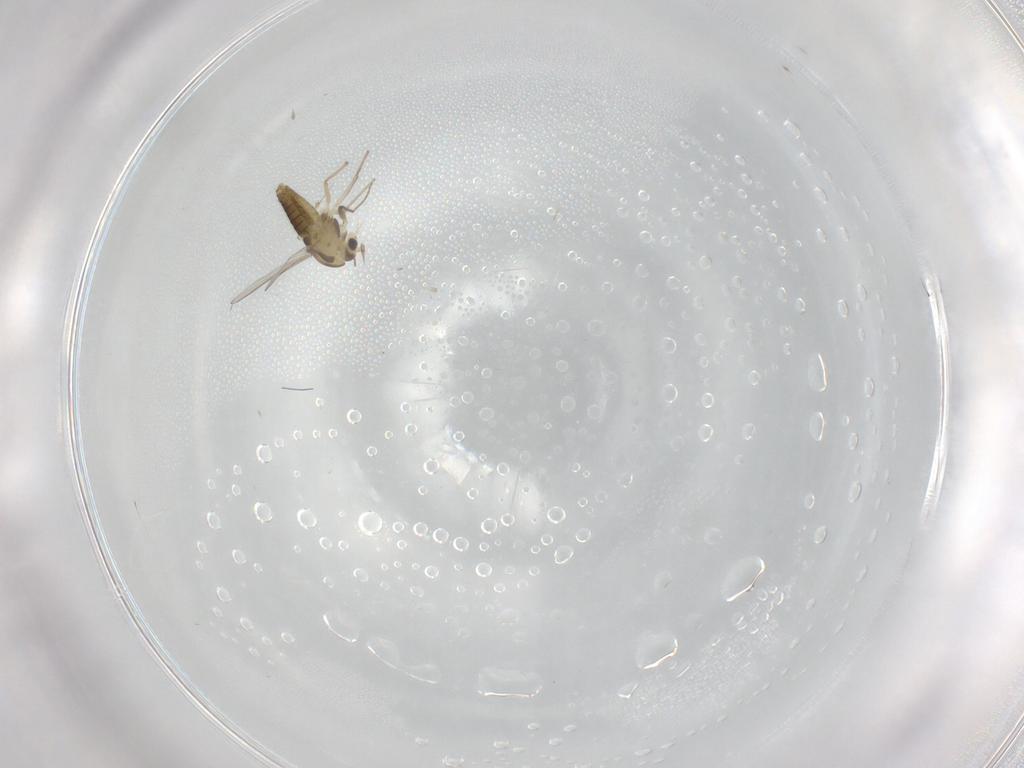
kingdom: Animalia
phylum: Arthropoda
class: Insecta
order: Diptera
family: Chironomidae
